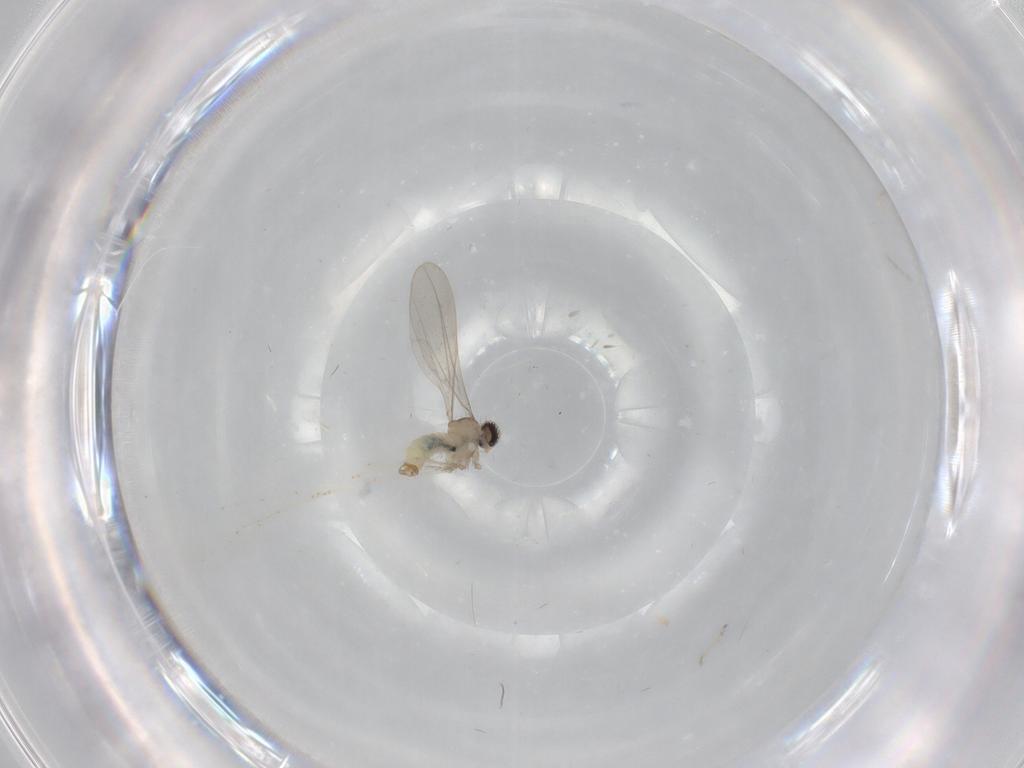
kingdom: Animalia
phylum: Arthropoda
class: Insecta
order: Diptera
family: Cecidomyiidae
